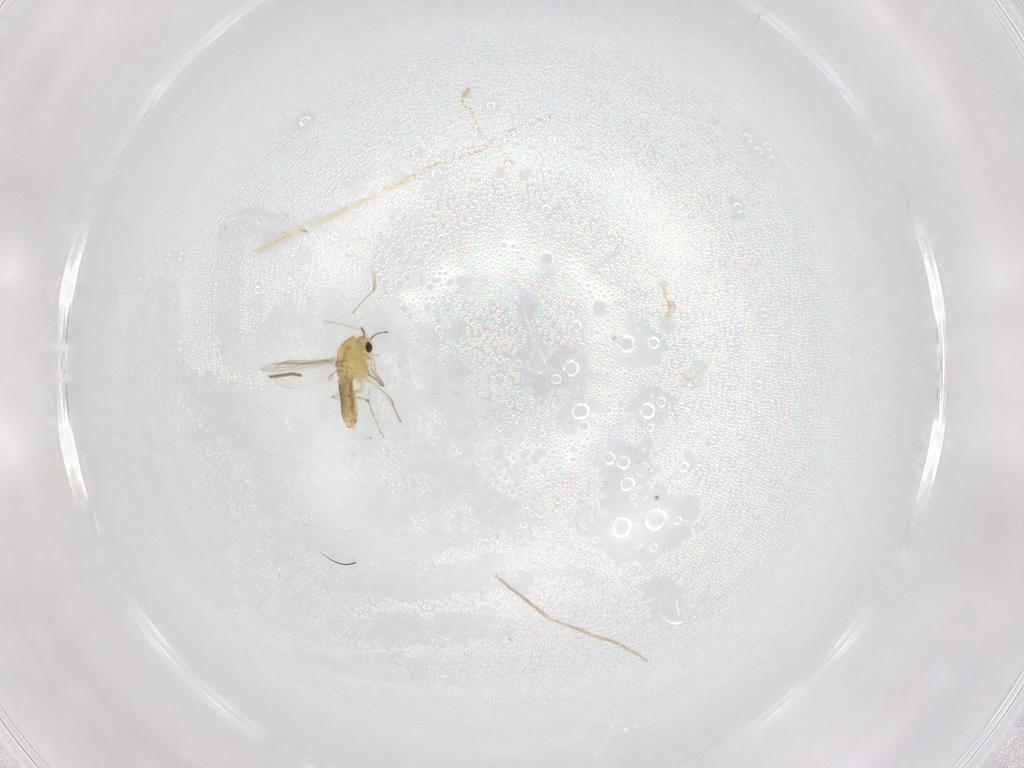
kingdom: Animalia
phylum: Arthropoda
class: Insecta
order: Diptera
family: Chironomidae
